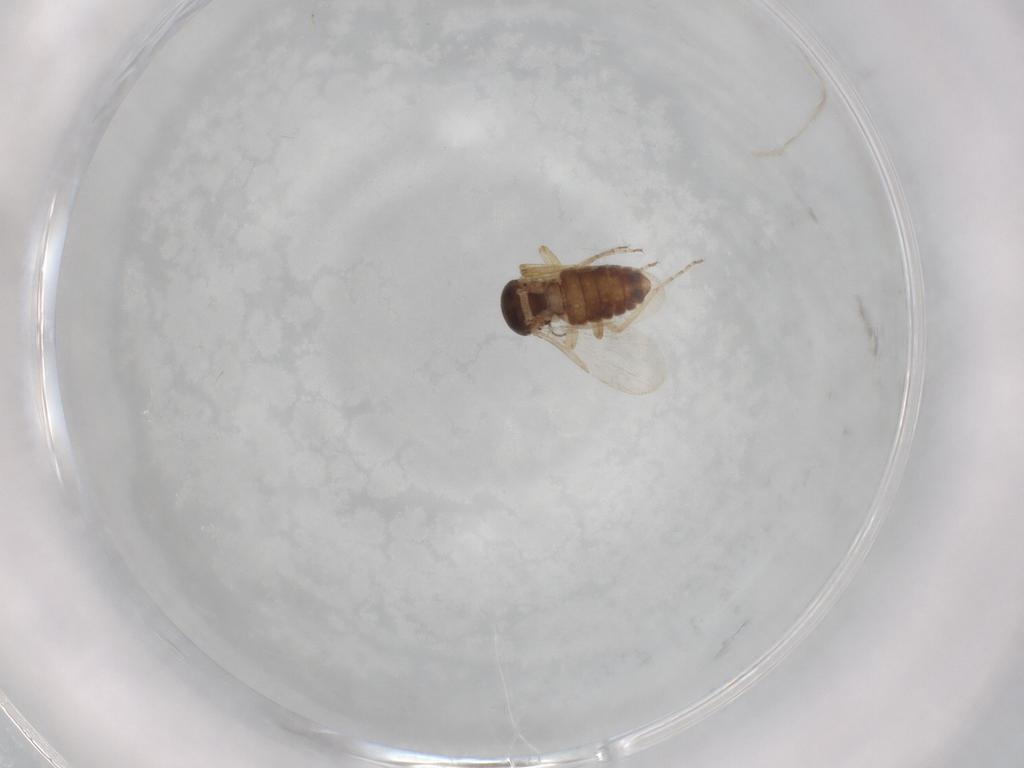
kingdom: Animalia
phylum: Arthropoda
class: Insecta
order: Diptera
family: Ceratopogonidae
